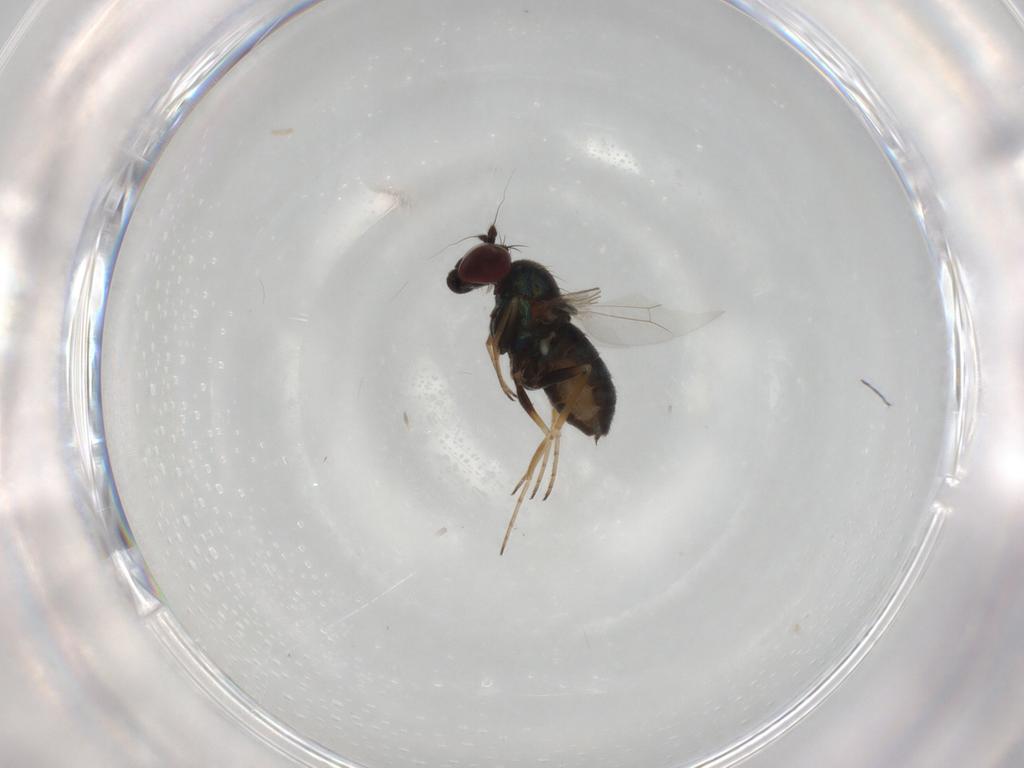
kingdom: Animalia
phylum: Arthropoda
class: Insecta
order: Diptera
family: Dolichopodidae
